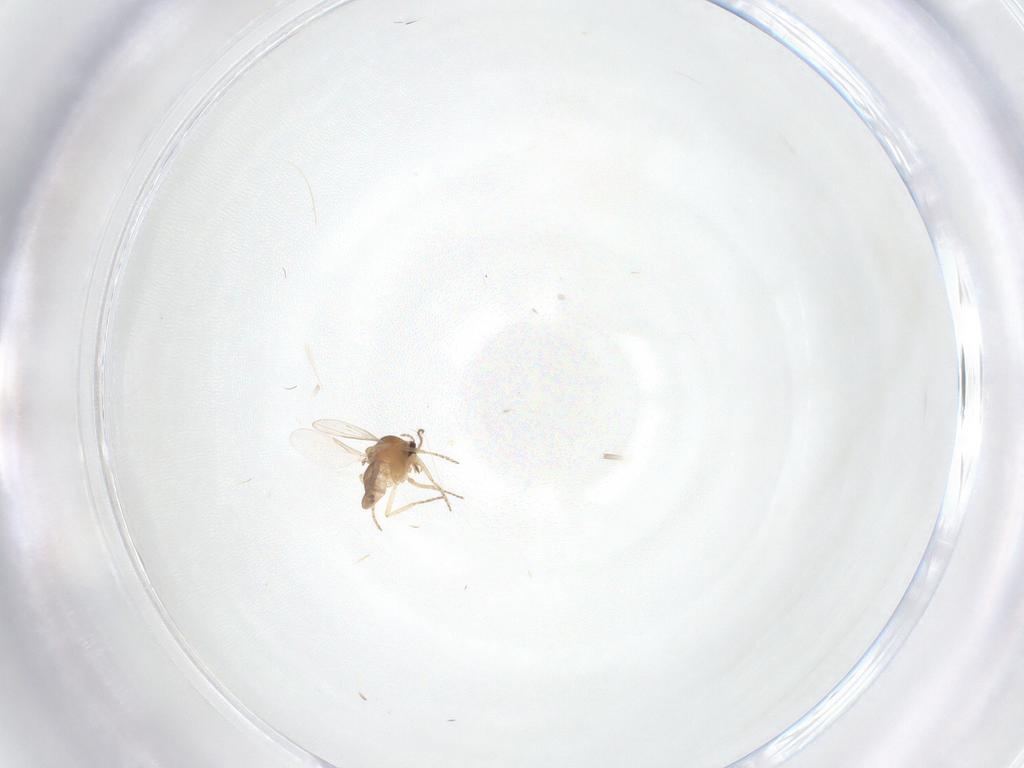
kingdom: Animalia
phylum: Arthropoda
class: Insecta
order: Diptera
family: Ceratopogonidae
